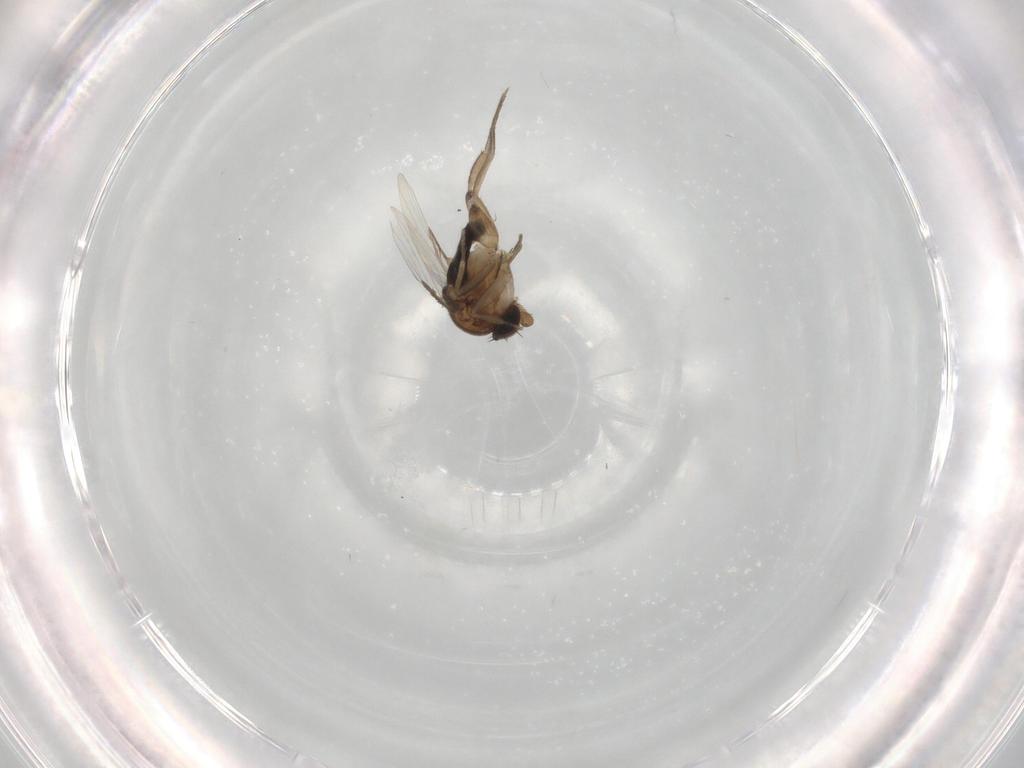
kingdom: Animalia
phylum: Arthropoda
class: Insecta
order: Diptera
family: Phoridae
